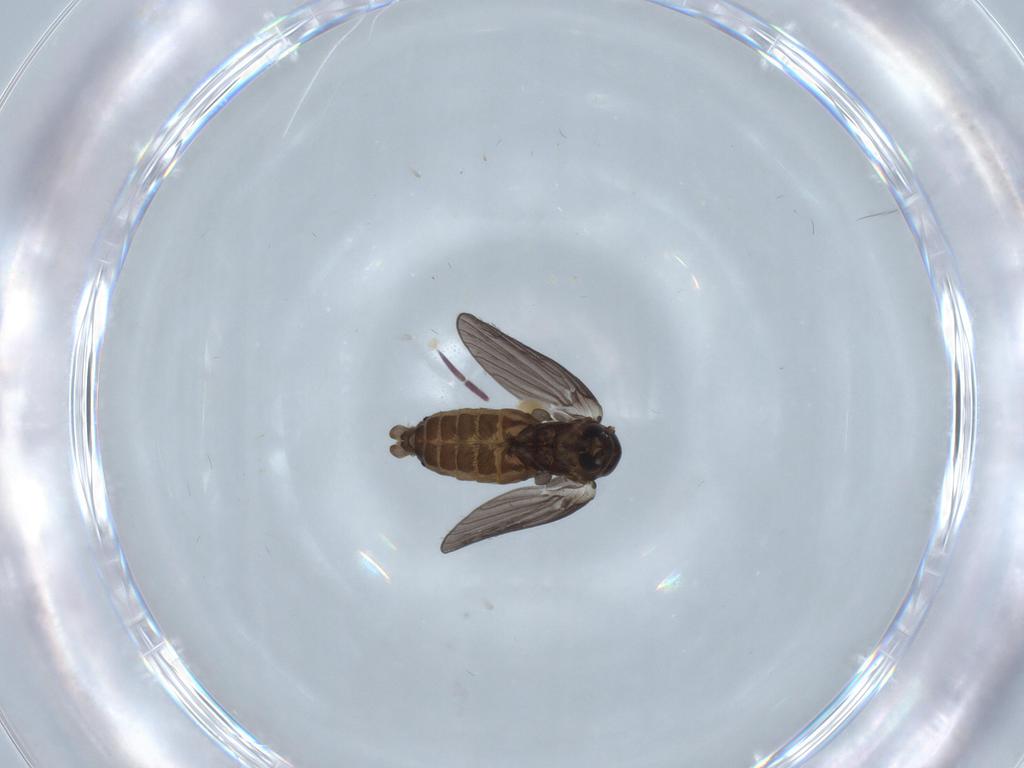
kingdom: Animalia
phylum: Arthropoda
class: Insecta
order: Diptera
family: Psychodidae
